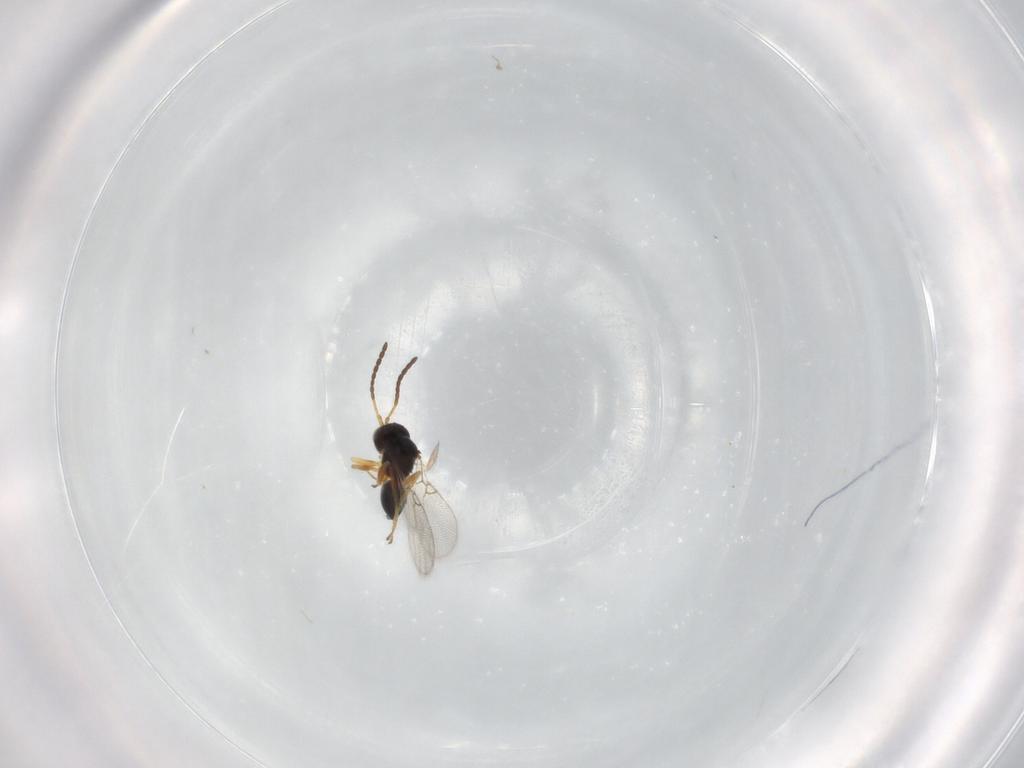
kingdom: Animalia
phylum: Arthropoda
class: Insecta
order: Hymenoptera
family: Figitidae
